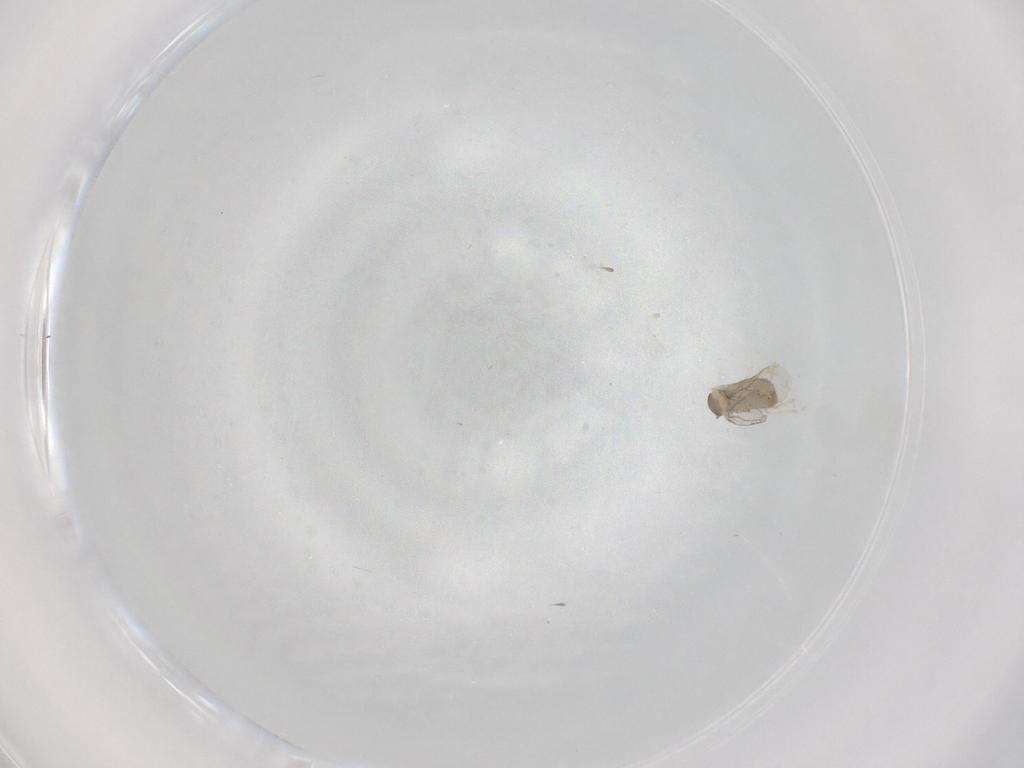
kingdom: Animalia
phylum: Arthropoda
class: Insecta
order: Diptera
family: Cecidomyiidae
